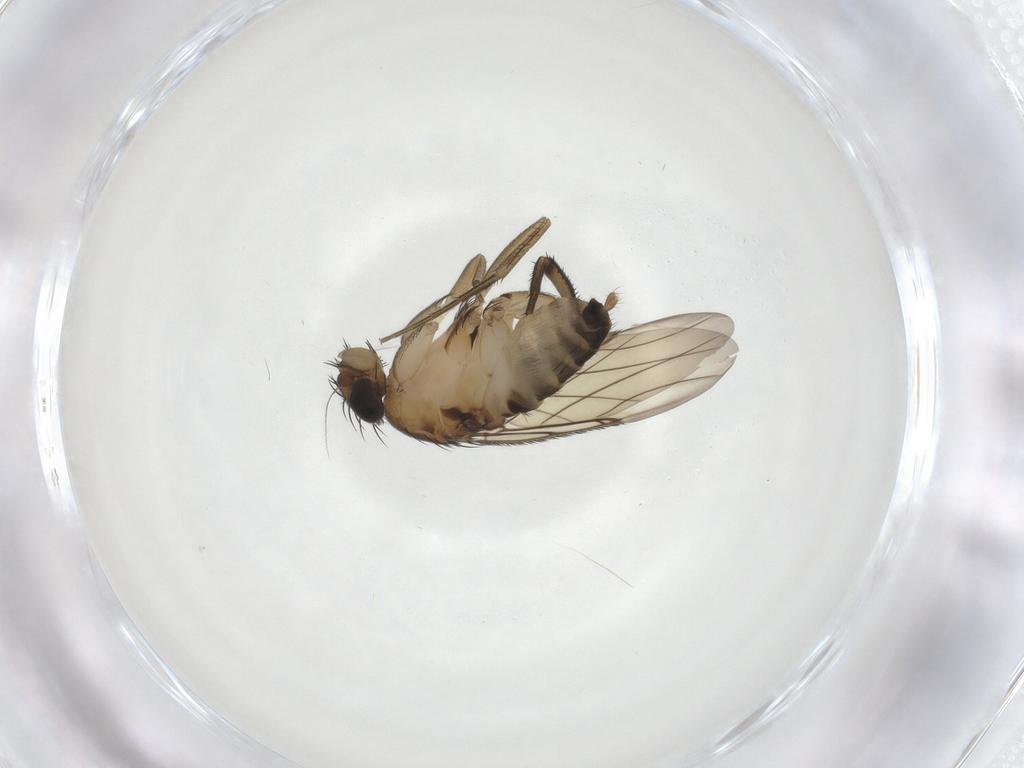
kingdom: Animalia
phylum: Arthropoda
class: Insecta
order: Diptera
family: Phoridae
